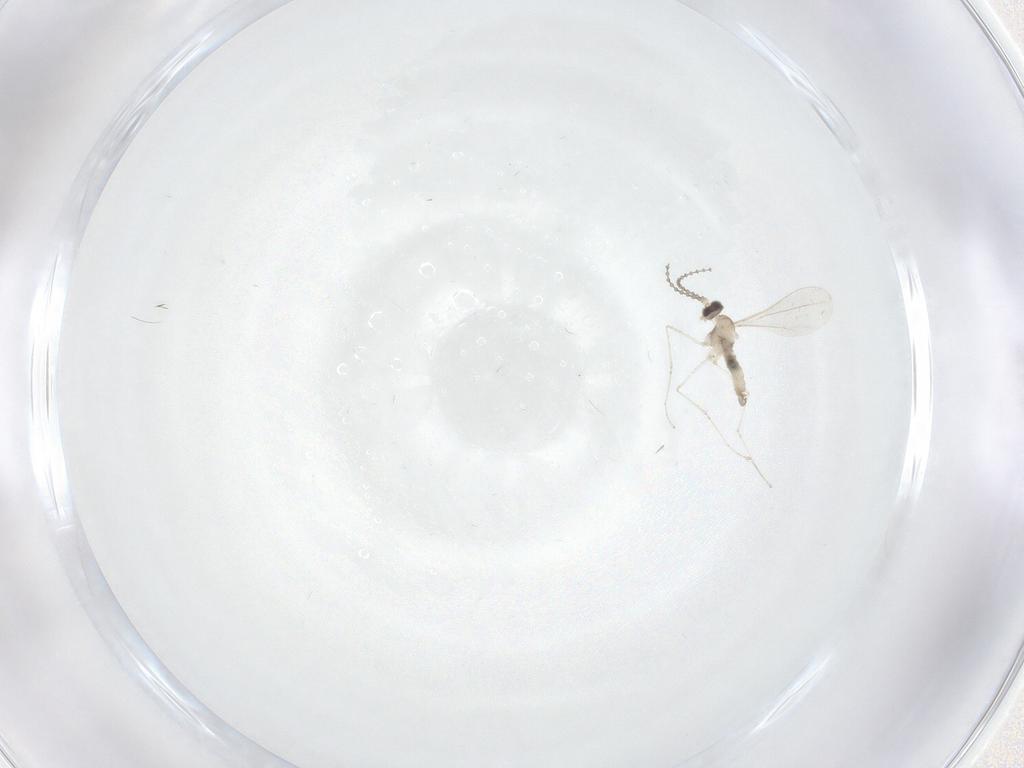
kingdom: Animalia
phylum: Arthropoda
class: Insecta
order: Diptera
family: Cecidomyiidae
